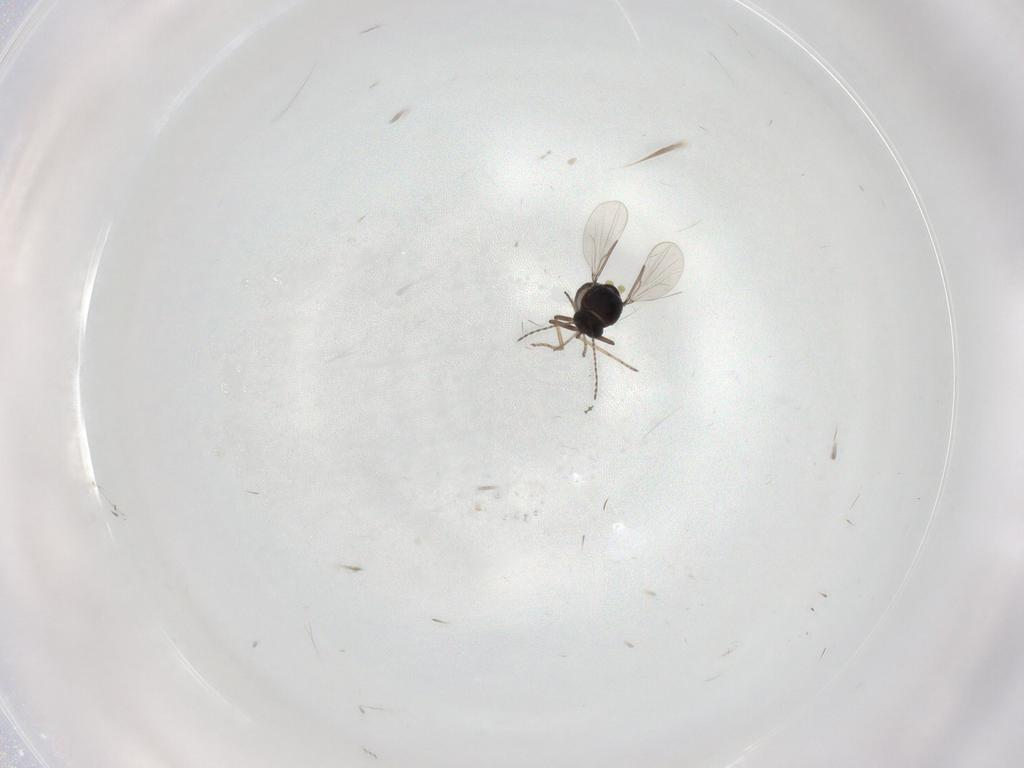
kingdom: Animalia
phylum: Arthropoda
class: Insecta
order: Diptera
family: Ceratopogonidae
